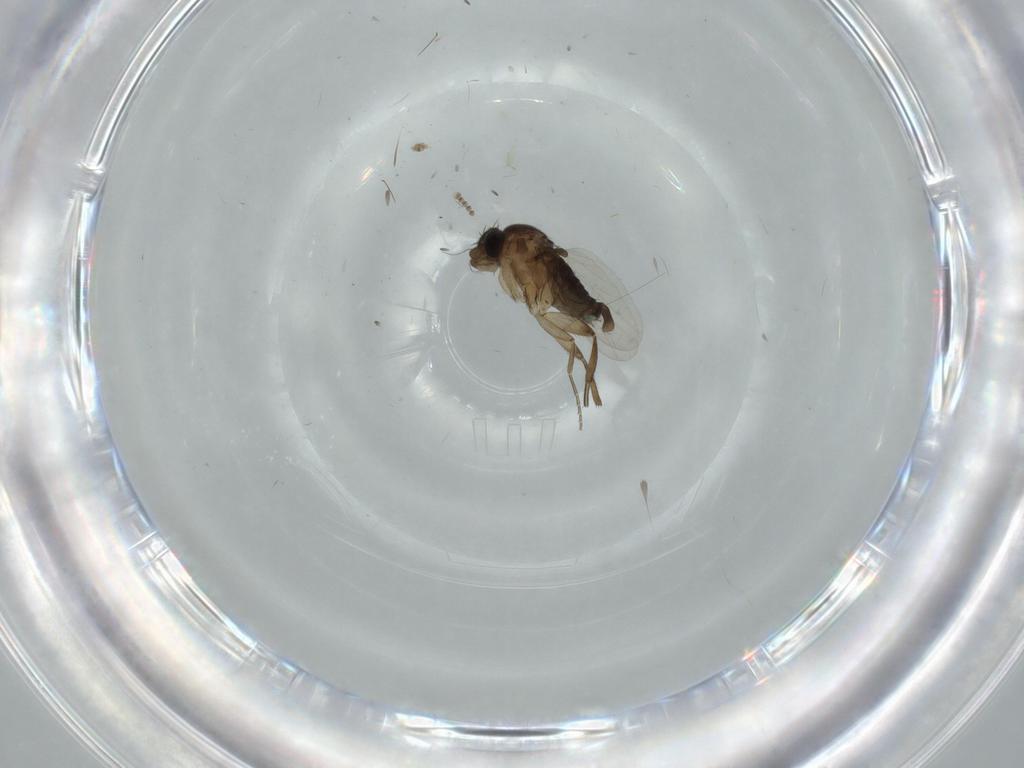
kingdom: Animalia
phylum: Arthropoda
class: Insecta
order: Diptera
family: Phoridae
